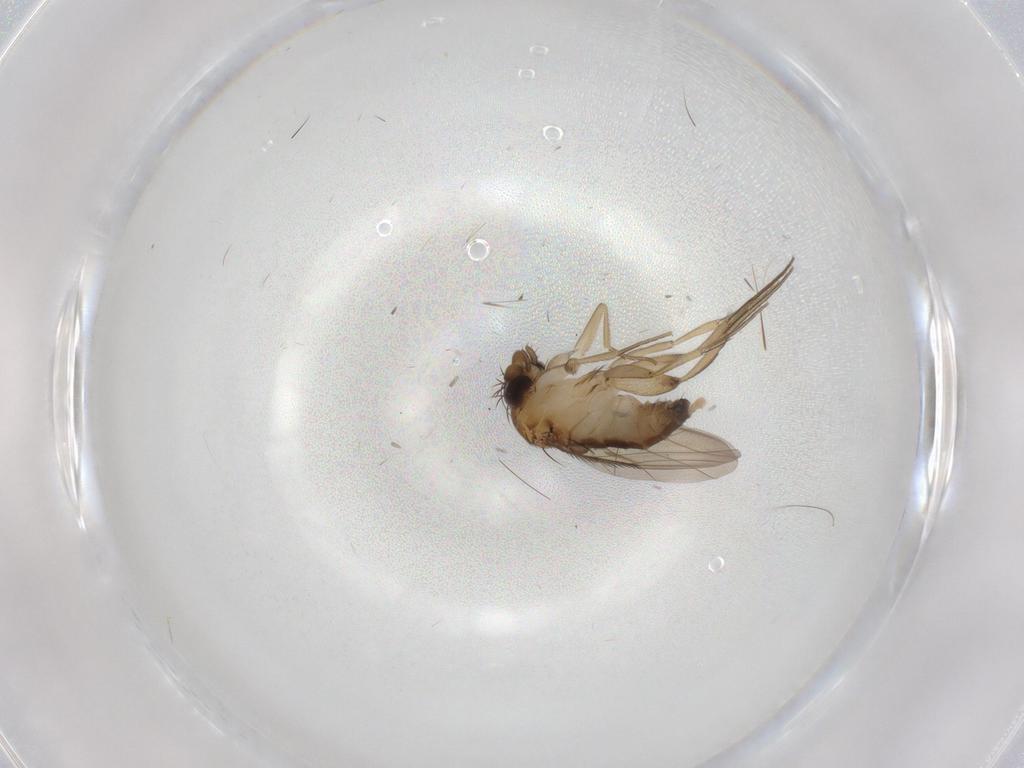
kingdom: Animalia
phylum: Arthropoda
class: Insecta
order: Diptera
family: Phoridae
